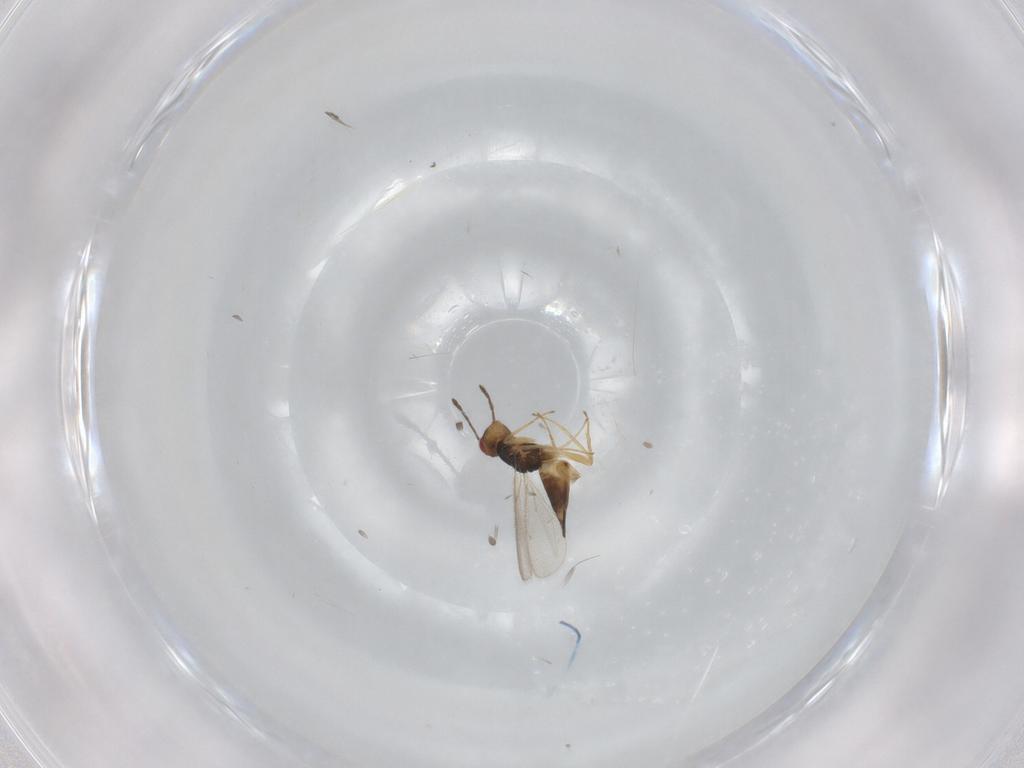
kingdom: Animalia
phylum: Arthropoda
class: Insecta
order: Hymenoptera
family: Eulophidae
